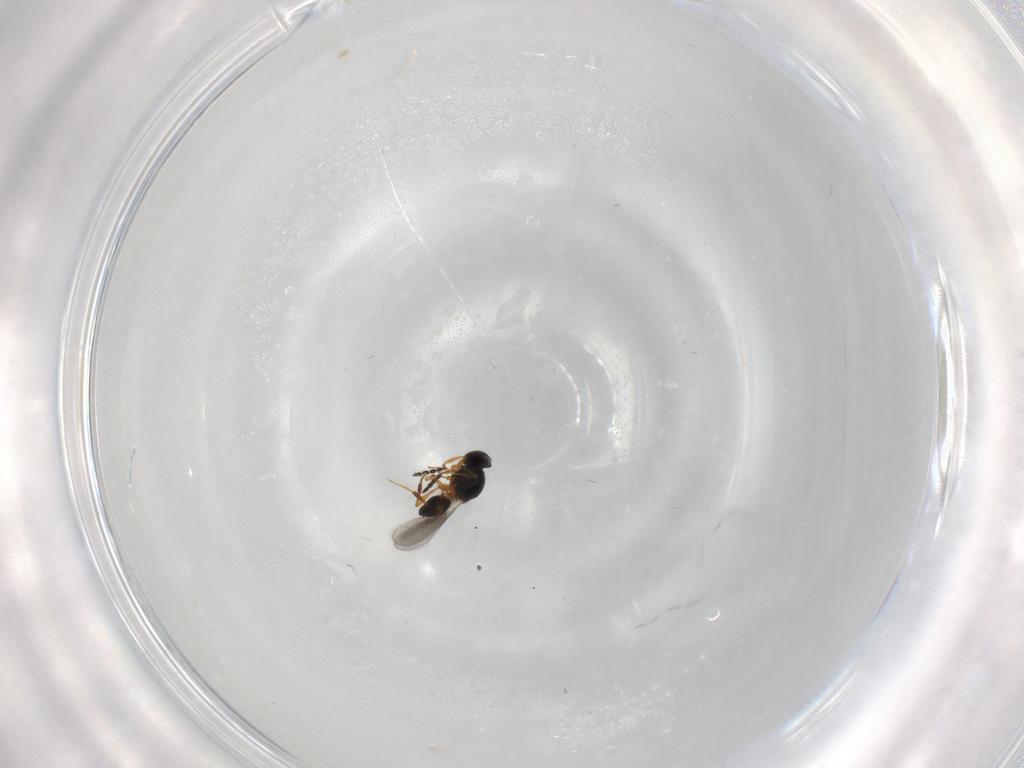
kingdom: Animalia
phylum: Arthropoda
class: Insecta
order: Hymenoptera
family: Platygastridae
